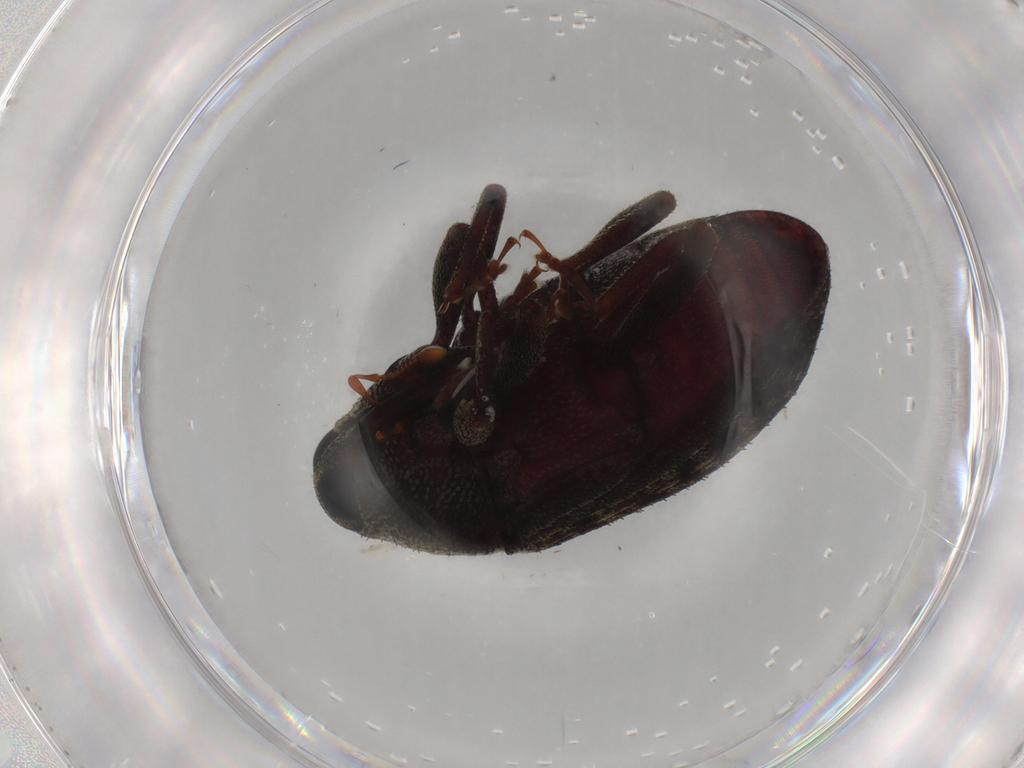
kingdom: Animalia
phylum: Arthropoda
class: Insecta
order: Coleoptera
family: Curculionidae
